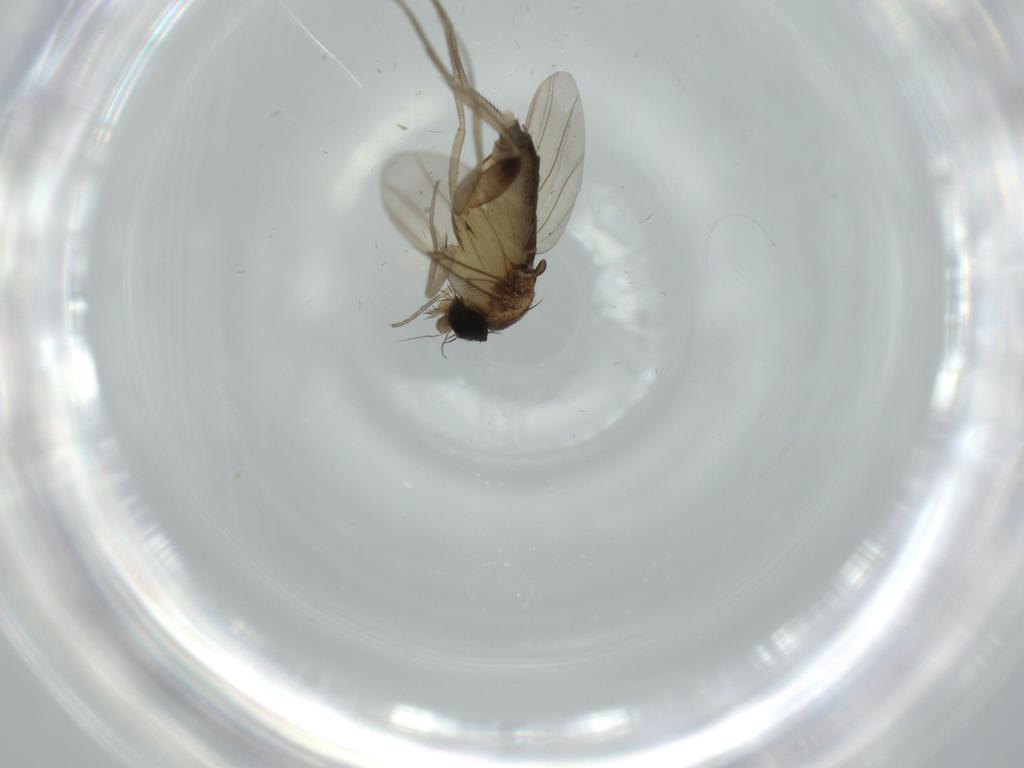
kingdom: Animalia
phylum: Arthropoda
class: Insecta
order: Diptera
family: Phoridae
